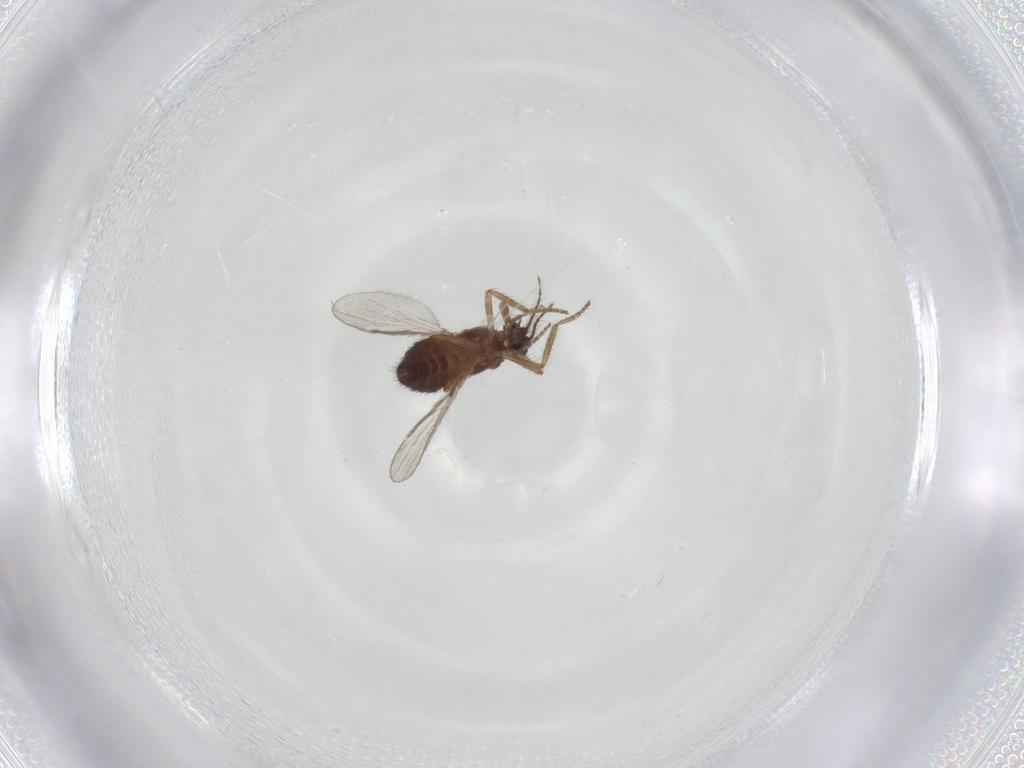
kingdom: Animalia
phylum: Arthropoda
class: Insecta
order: Diptera
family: Ceratopogonidae
